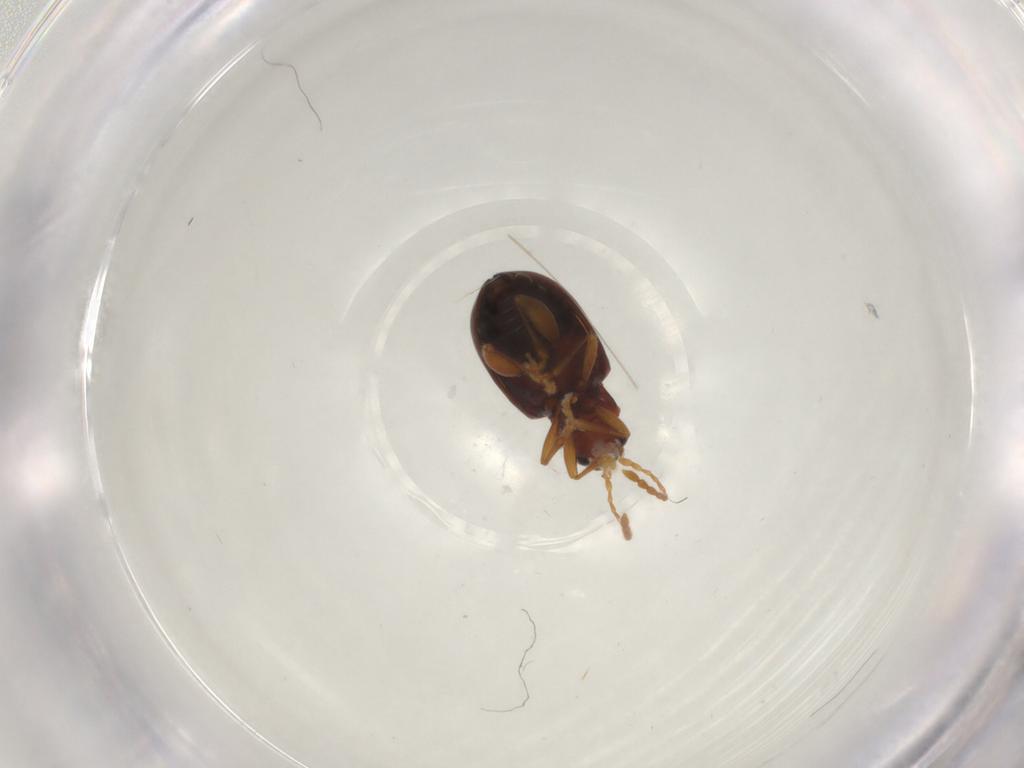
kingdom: Animalia
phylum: Arthropoda
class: Insecta
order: Coleoptera
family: Chrysomelidae
